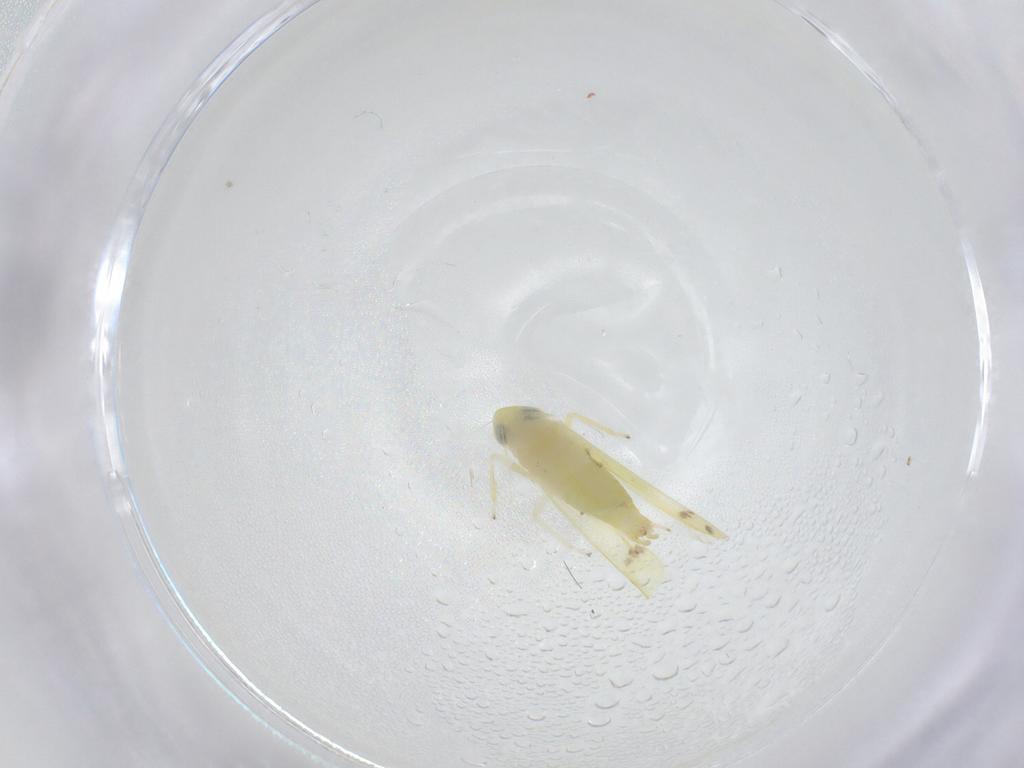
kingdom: Animalia
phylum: Arthropoda
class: Insecta
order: Hemiptera
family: Cicadellidae
